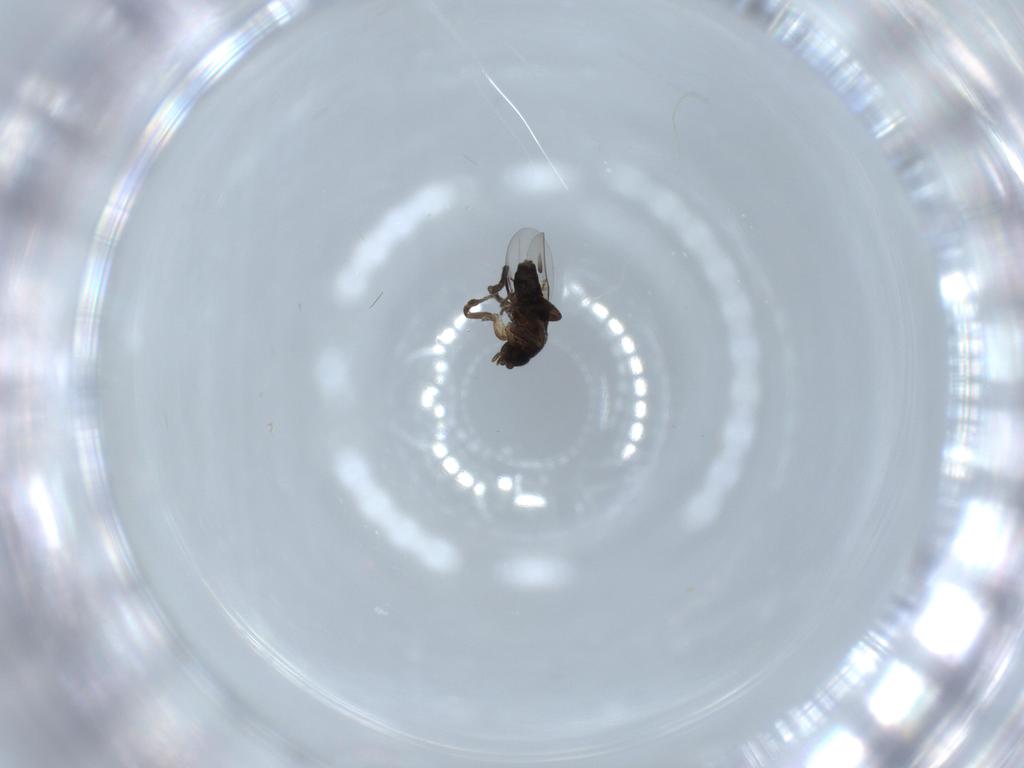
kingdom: Animalia
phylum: Arthropoda
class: Insecta
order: Diptera
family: Phoridae
